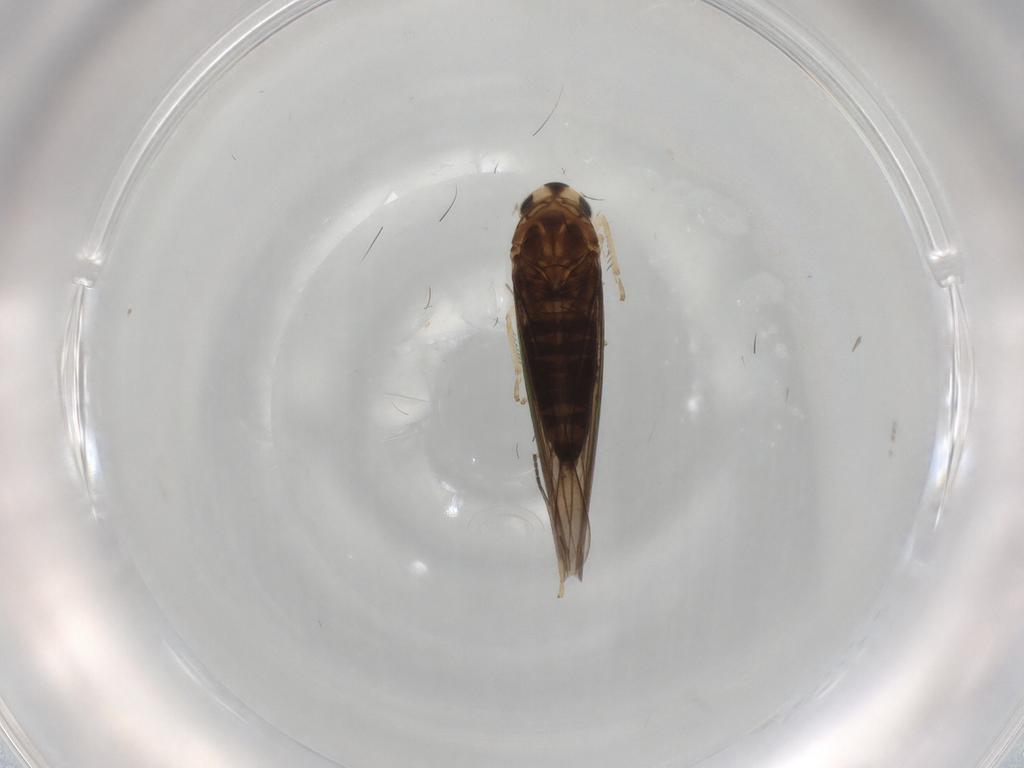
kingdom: Animalia
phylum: Arthropoda
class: Insecta
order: Hemiptera
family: Cicadellidae
